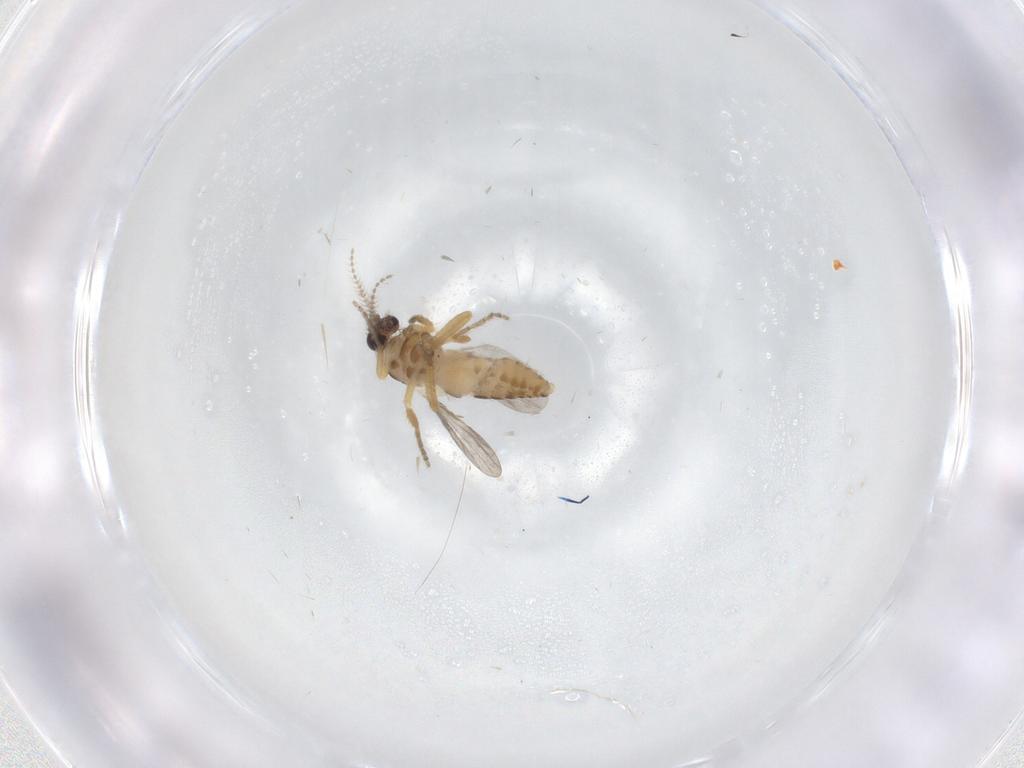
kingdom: Animalia
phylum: Arthropoda
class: Insecta
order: Diptera
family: Ceratopogonidae
